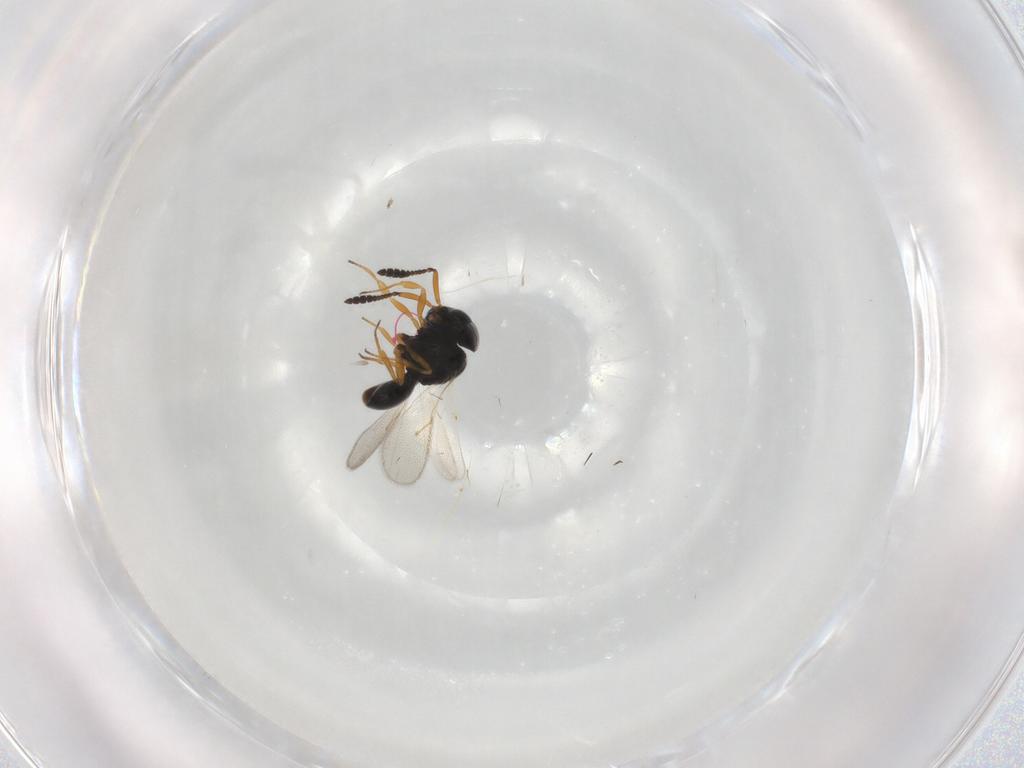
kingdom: Animalia
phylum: Arthropoda
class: Insecta
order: Hymenoptera
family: Scelionidae
